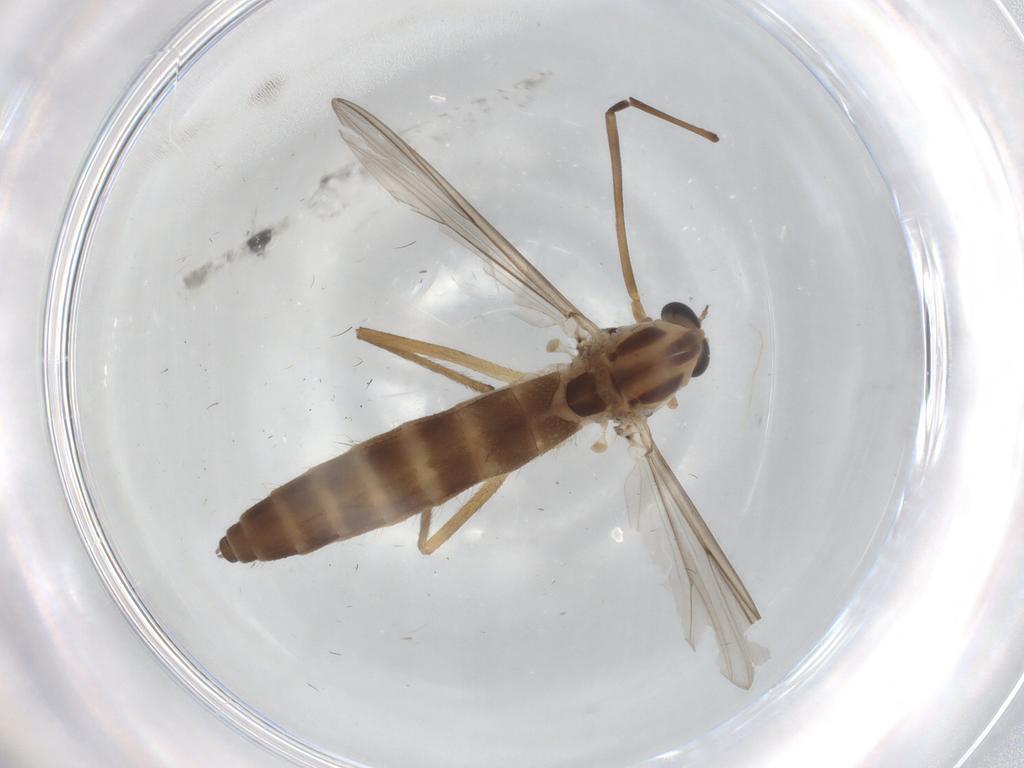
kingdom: Animalia
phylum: Arthropoda
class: Insecta
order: Diptera
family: Chironomidae
